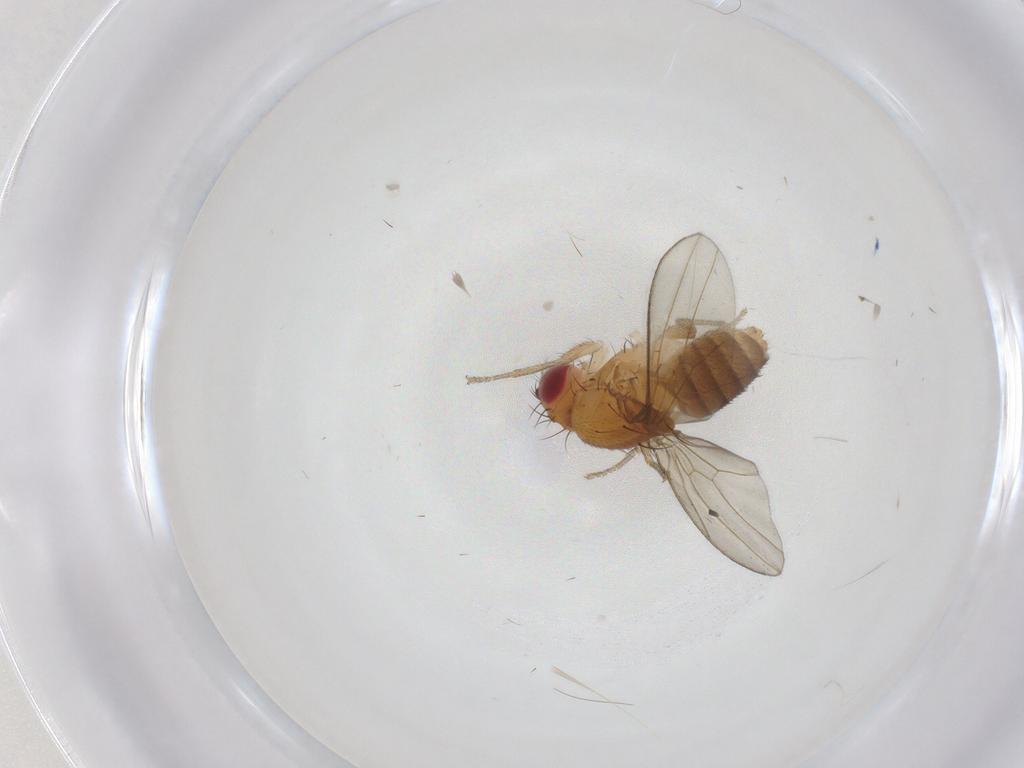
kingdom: Animalia
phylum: Arthropoda
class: Insecta
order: Diptera
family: Drosophilidae
